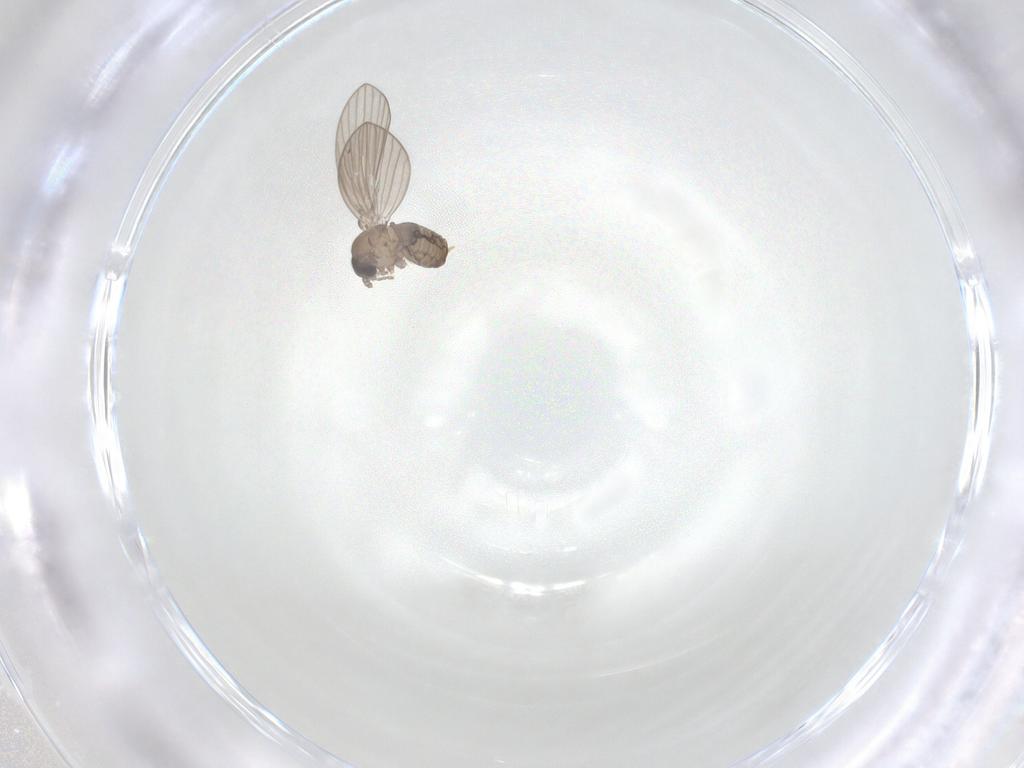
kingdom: Animalia
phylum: Arthropoda
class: Insecta
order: Diptera
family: Psychodidae
